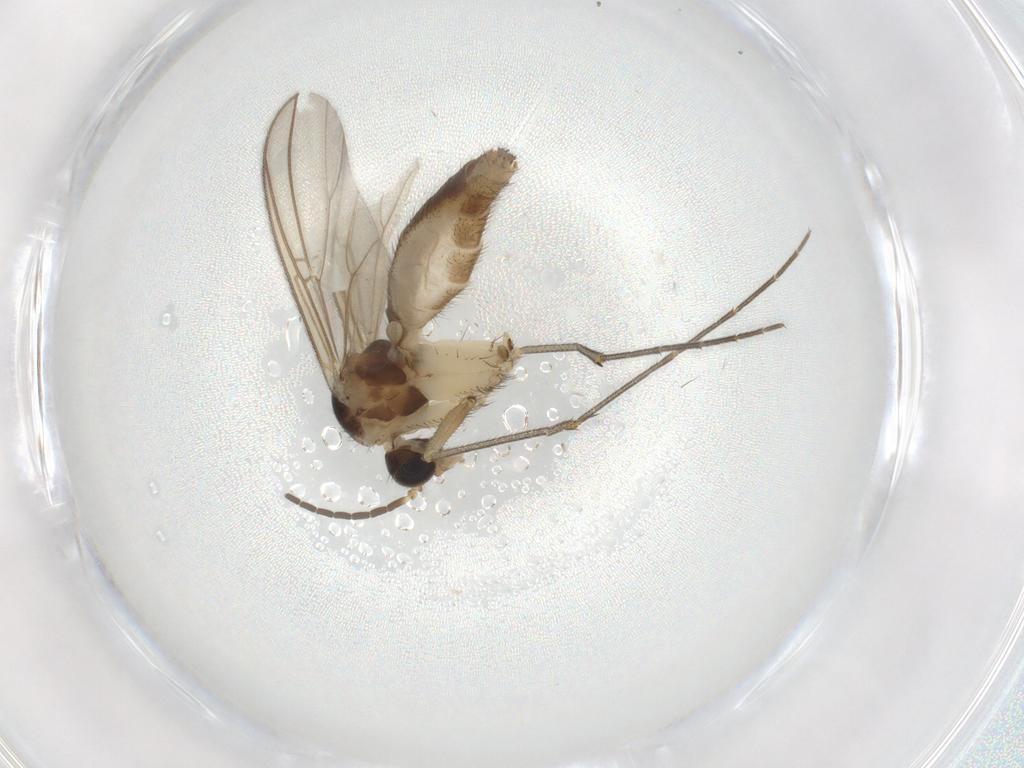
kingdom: Animalia
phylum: Arthropoda
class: Insecta
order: Diptera
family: Mycetophilidae
